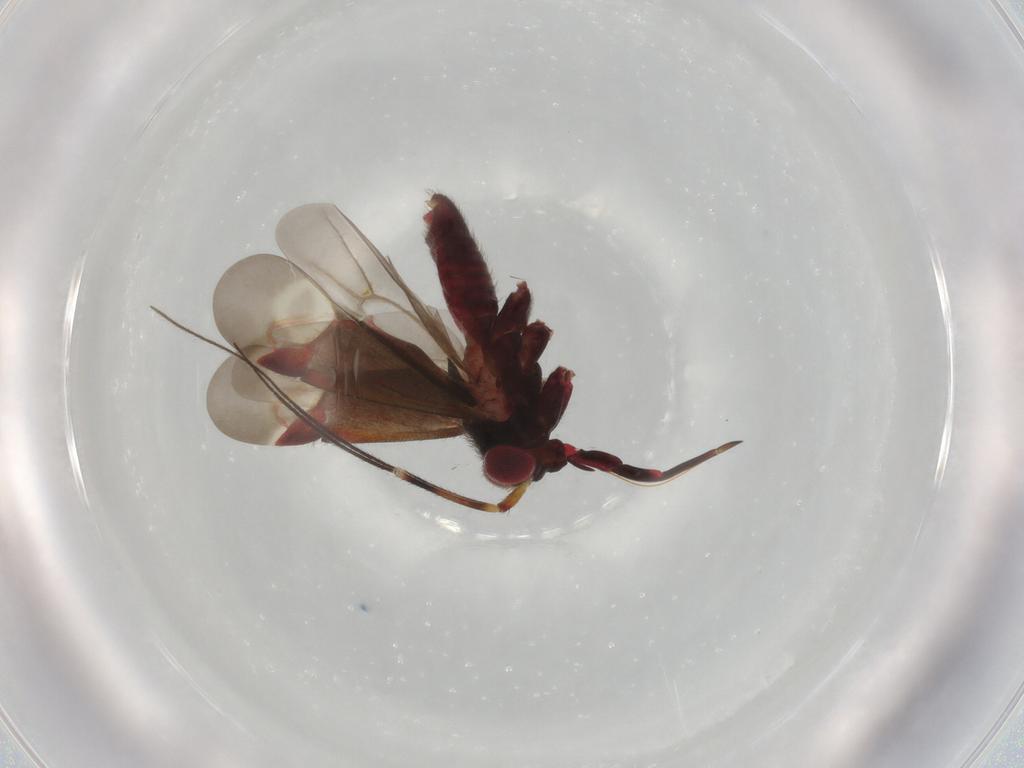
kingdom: Animalia
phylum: Arthropoda
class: Insecta
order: Hemiptera
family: Miridae
